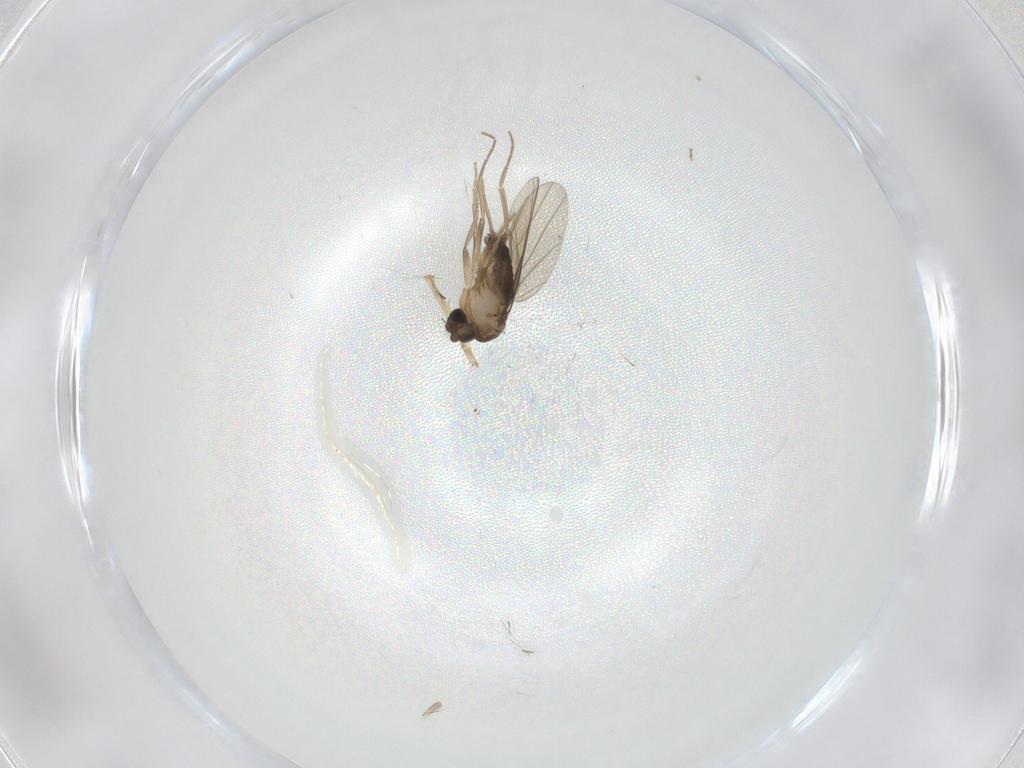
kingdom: Animalia
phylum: Arthropoda
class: Insecta
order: Diptera
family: Phoridae
